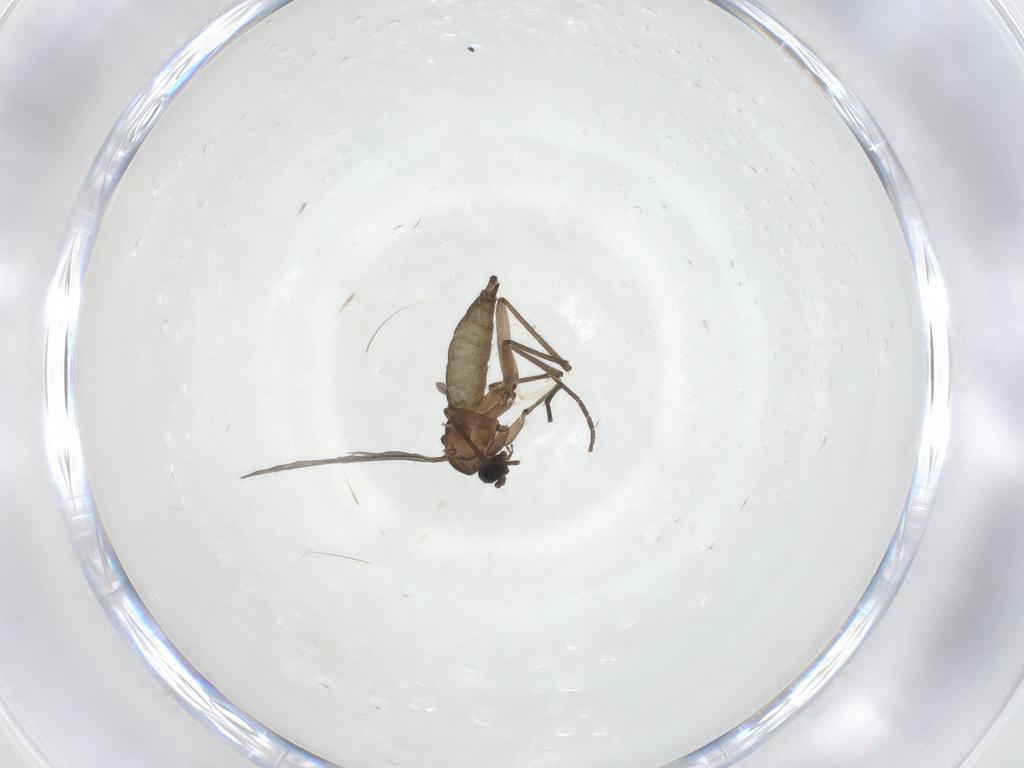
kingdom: Animalia
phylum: Arthropoda
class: Insecta
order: Diptera
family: Sciaridae
